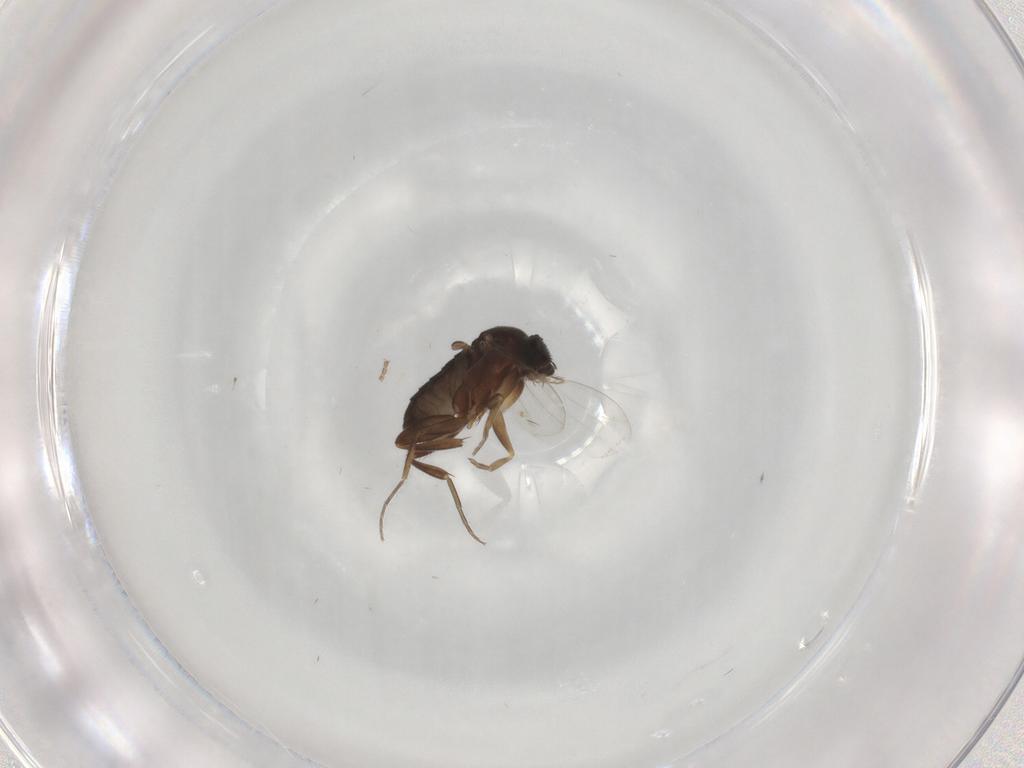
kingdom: Animalia
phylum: Arthropoda
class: Insecta
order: Diptera
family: Phoridae
